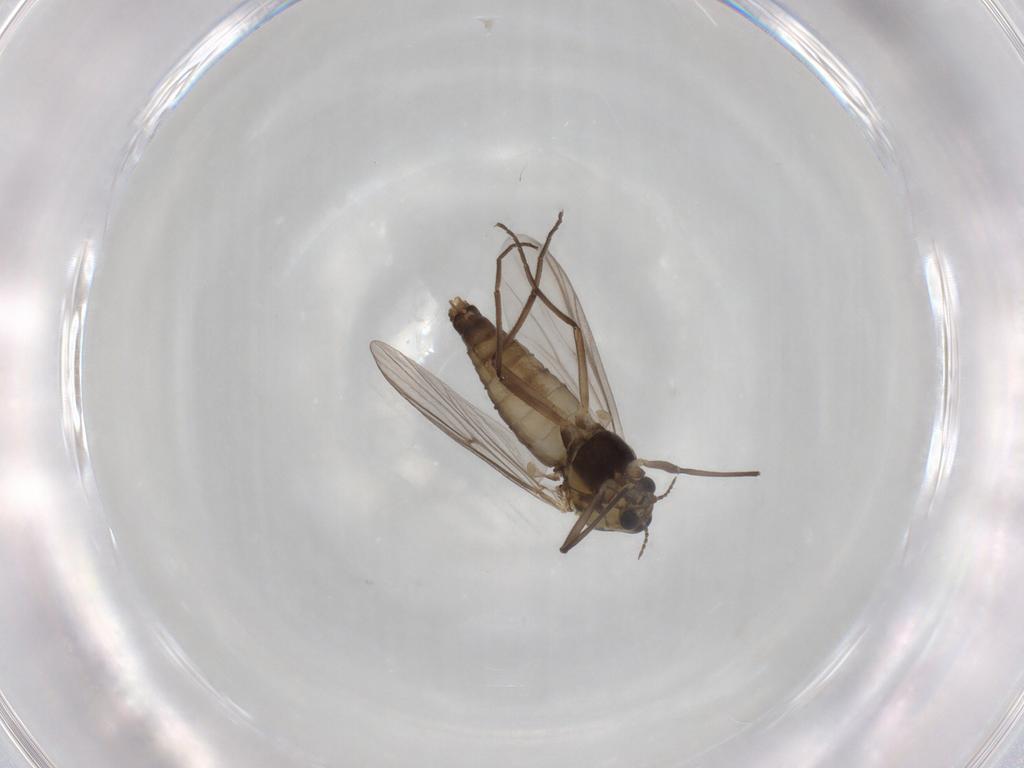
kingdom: Animalia
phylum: Arthropoda
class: Insecta
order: Diptera
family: Chironomidae
